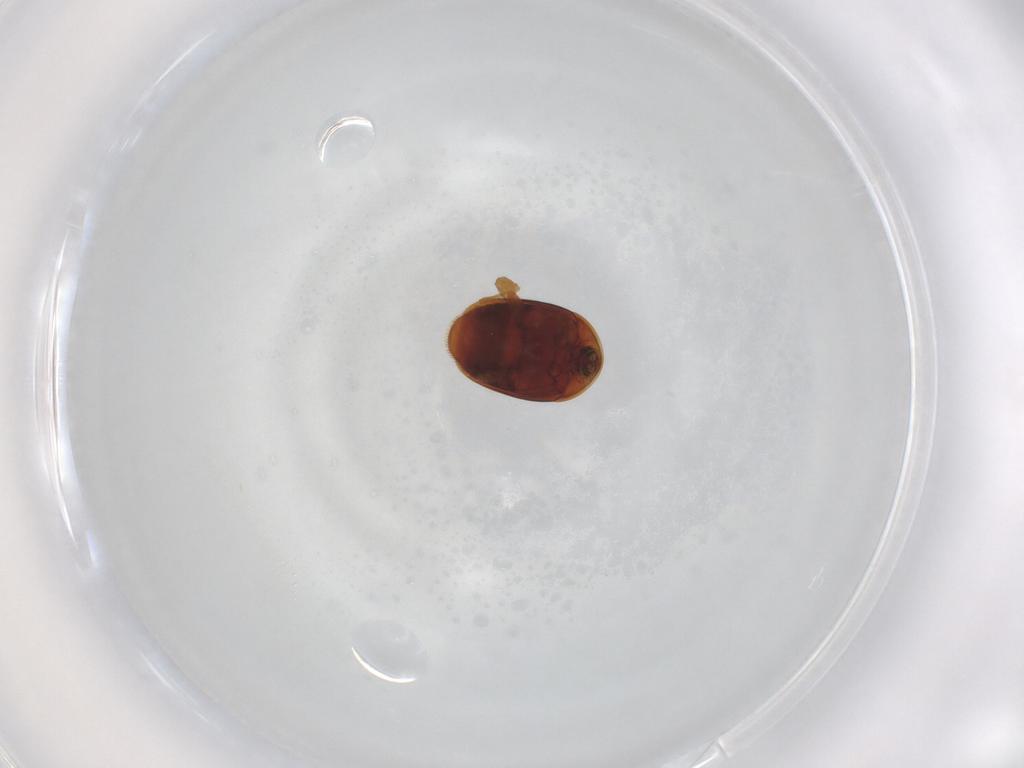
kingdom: Animalia
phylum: Arthropoda
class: Insecta
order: Coleoptera
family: Corylophidae
